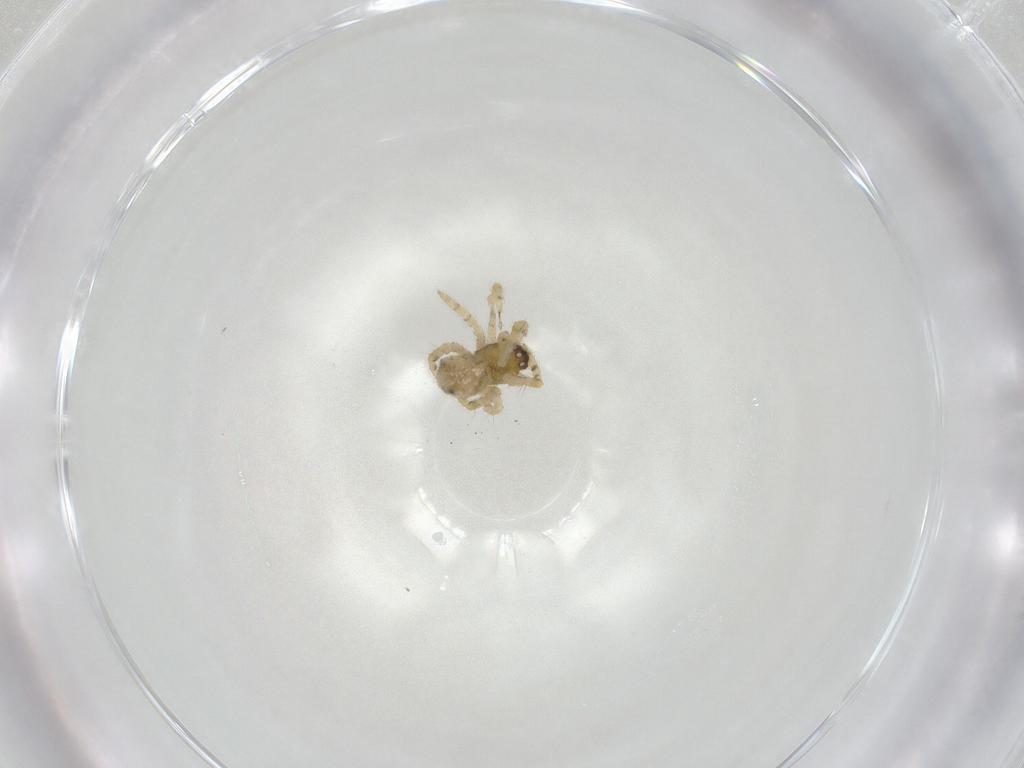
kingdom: Animalia
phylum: Arthropoda
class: Arachnida
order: Araneae
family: Theridiidae
